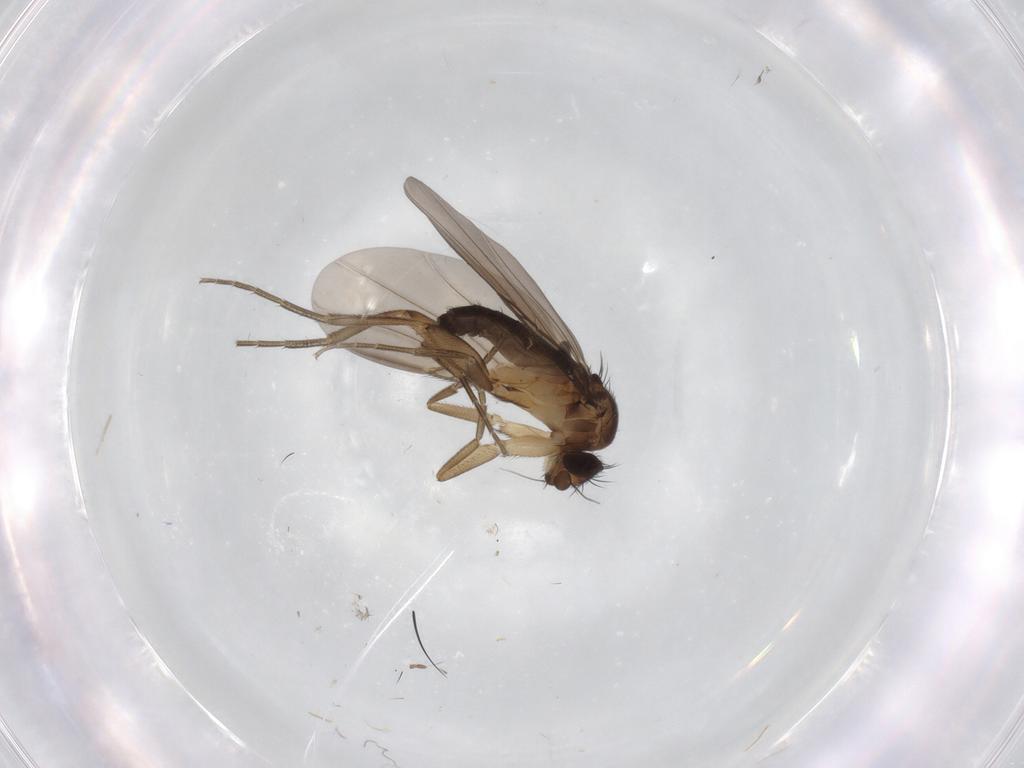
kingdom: Animalia
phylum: Arthropoda
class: Insecta
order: Diptera
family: Phoridae
